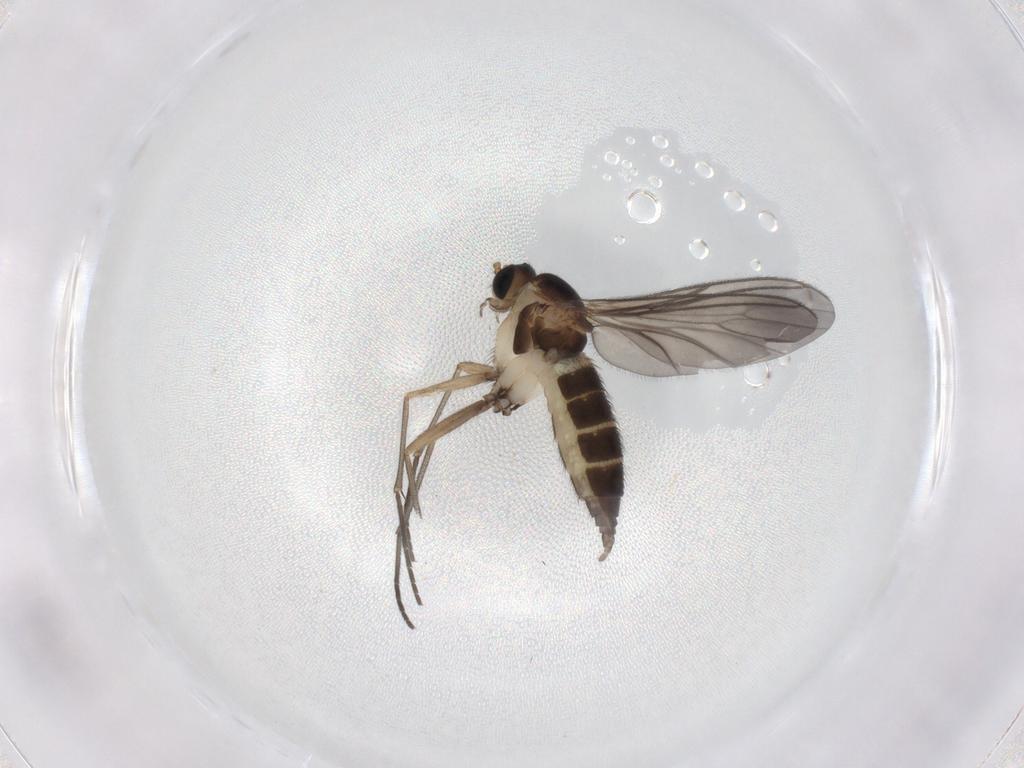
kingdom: Animalia
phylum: Arthropoda
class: Insecta
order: Diptera
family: Sciaridae
